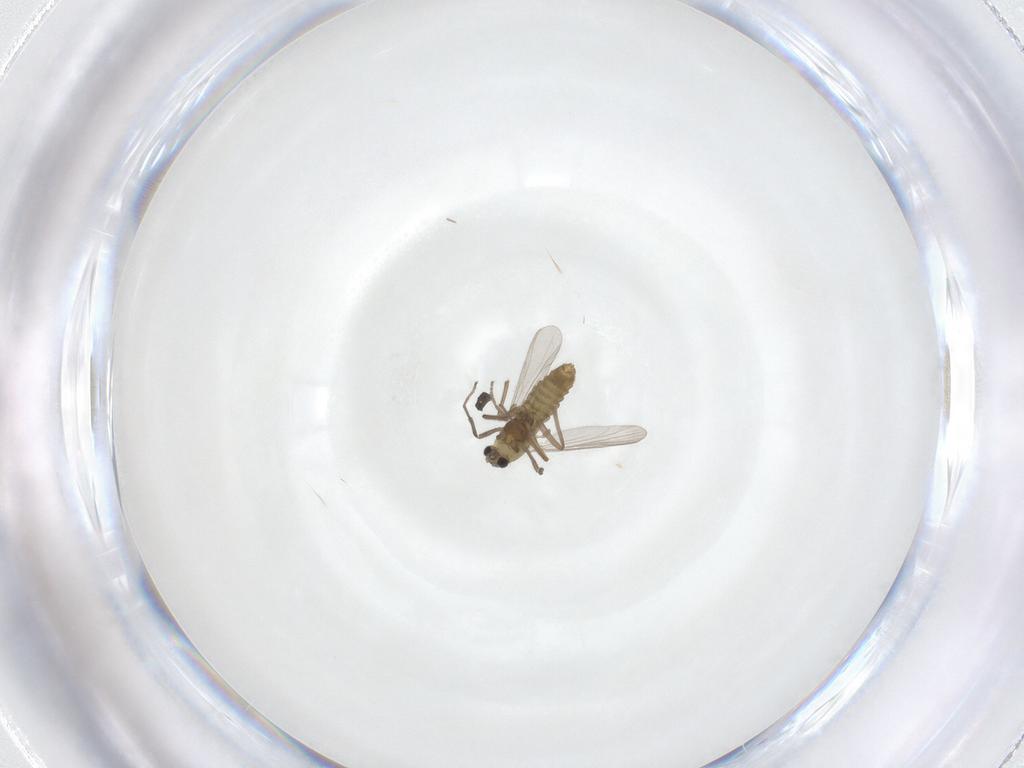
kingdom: Animalia
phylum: Arthropoda
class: Insecta
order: Diptera
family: Chironomidae
